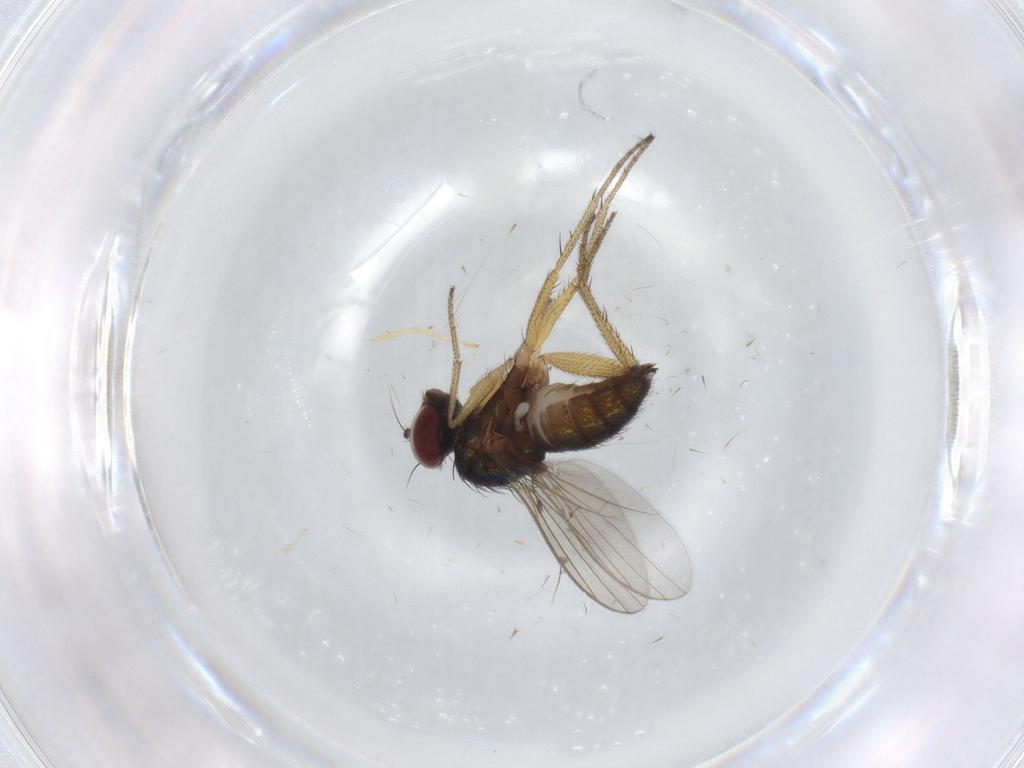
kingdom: Animalia
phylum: Arthropoda
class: Insecta
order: Diptera
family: Dolichopodidae
